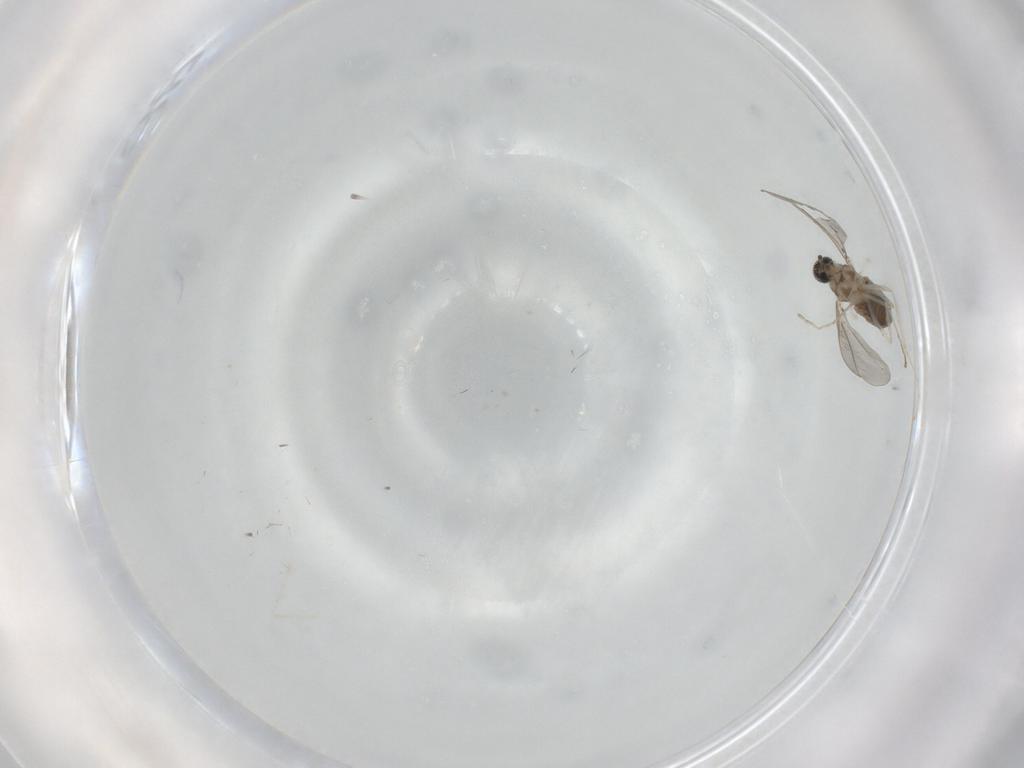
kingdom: Animalia
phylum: Arthropoda
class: Insecta
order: Diptera
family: Cecidomyiidae
